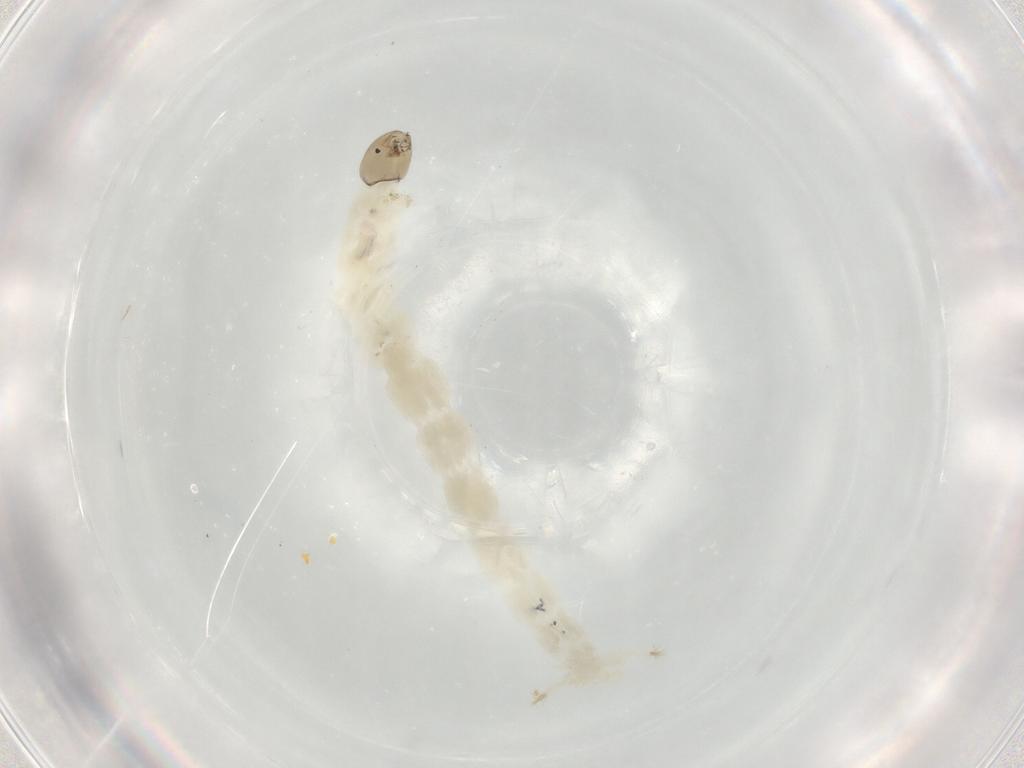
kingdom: Animalia
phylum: Arthropoda
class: Insecta
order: Diptera
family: Chironomidae
